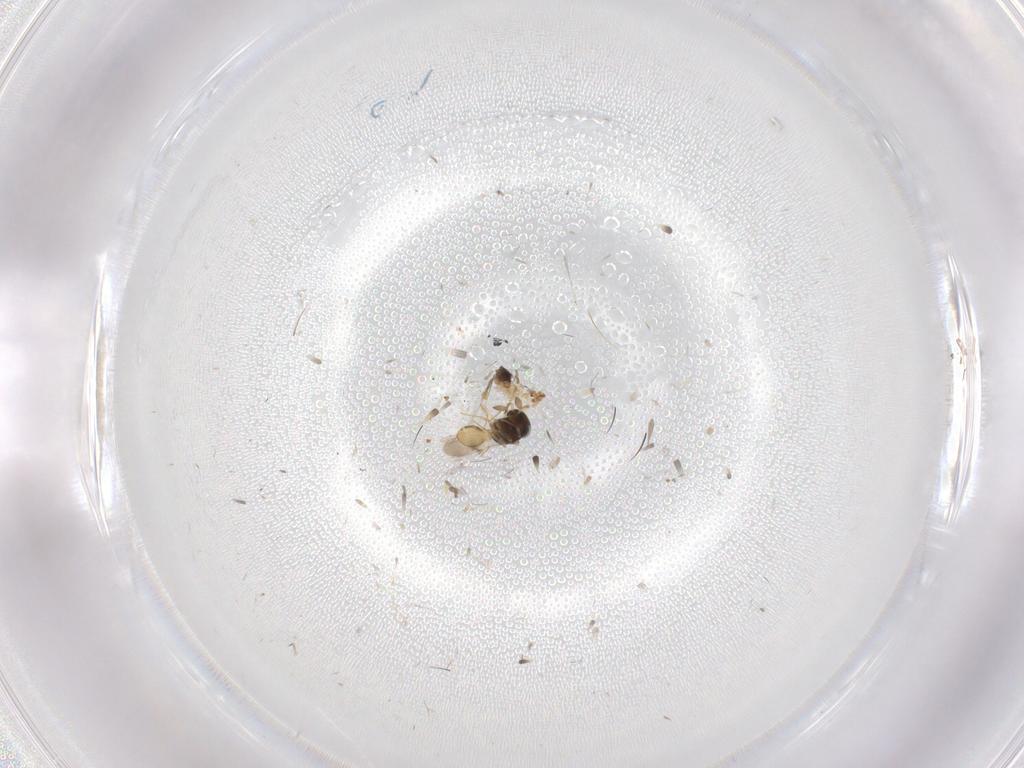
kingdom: Animalia
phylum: Arthropoda
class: Insecta
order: Hymenoptera
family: Scelionidae
